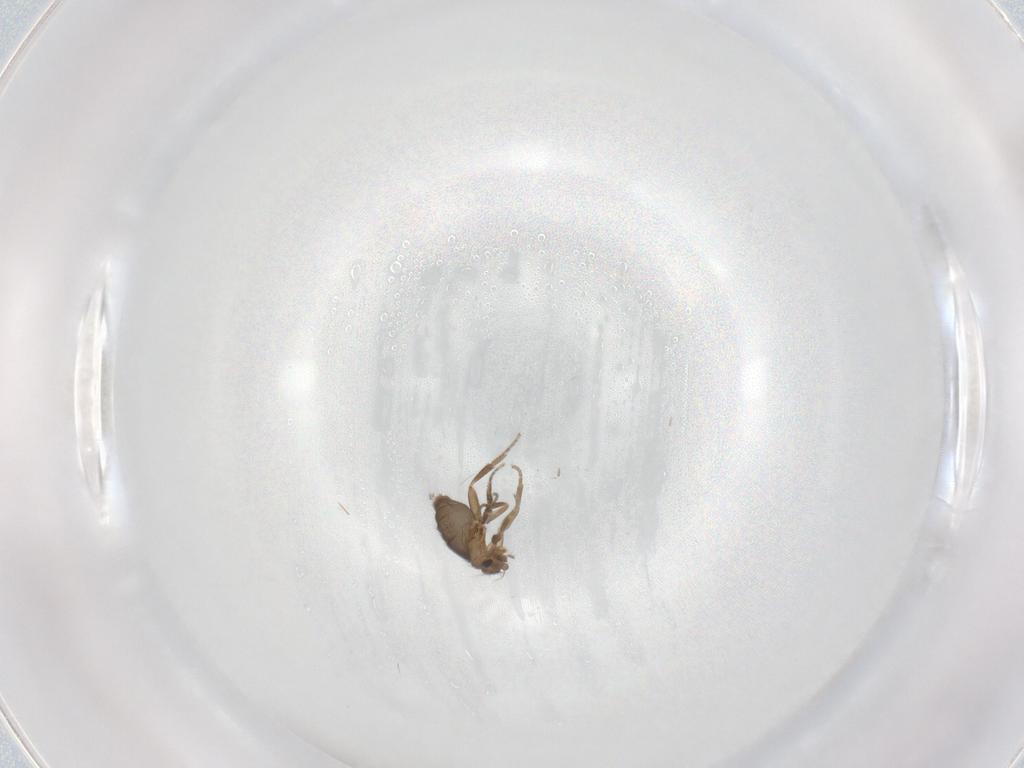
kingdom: Animalia
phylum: Arthropoda
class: Insecta
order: Diptera
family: Phoridae
